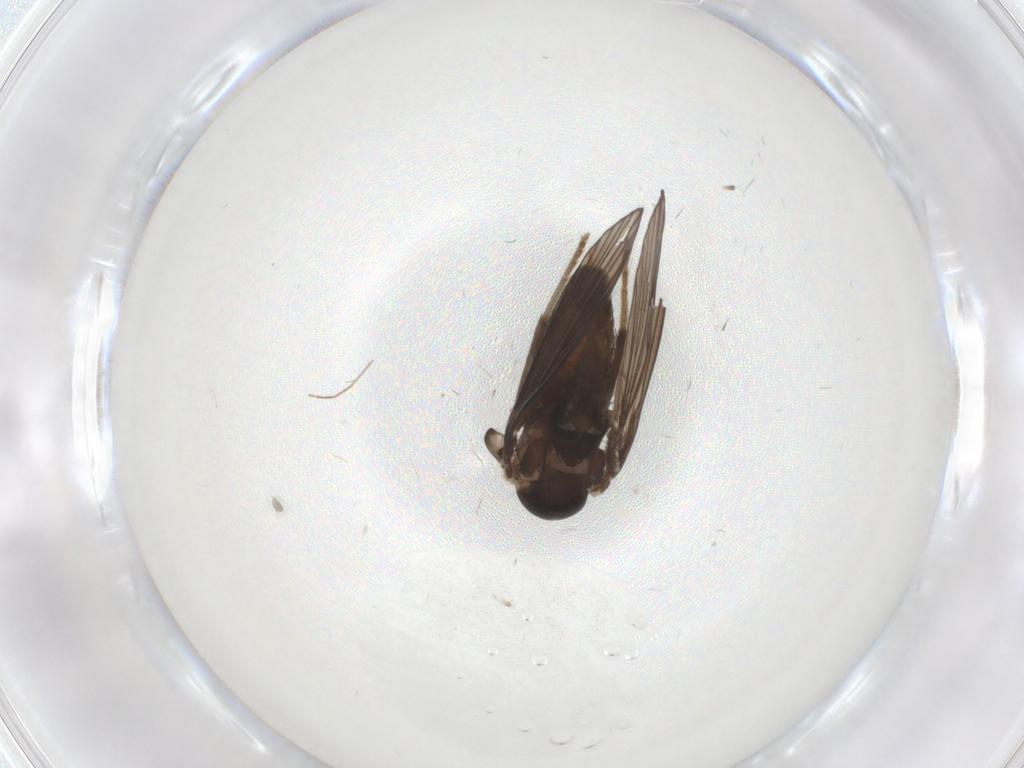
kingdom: Animalia
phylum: Arthropoda
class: Insecta
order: Diptera
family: Psychodidae
